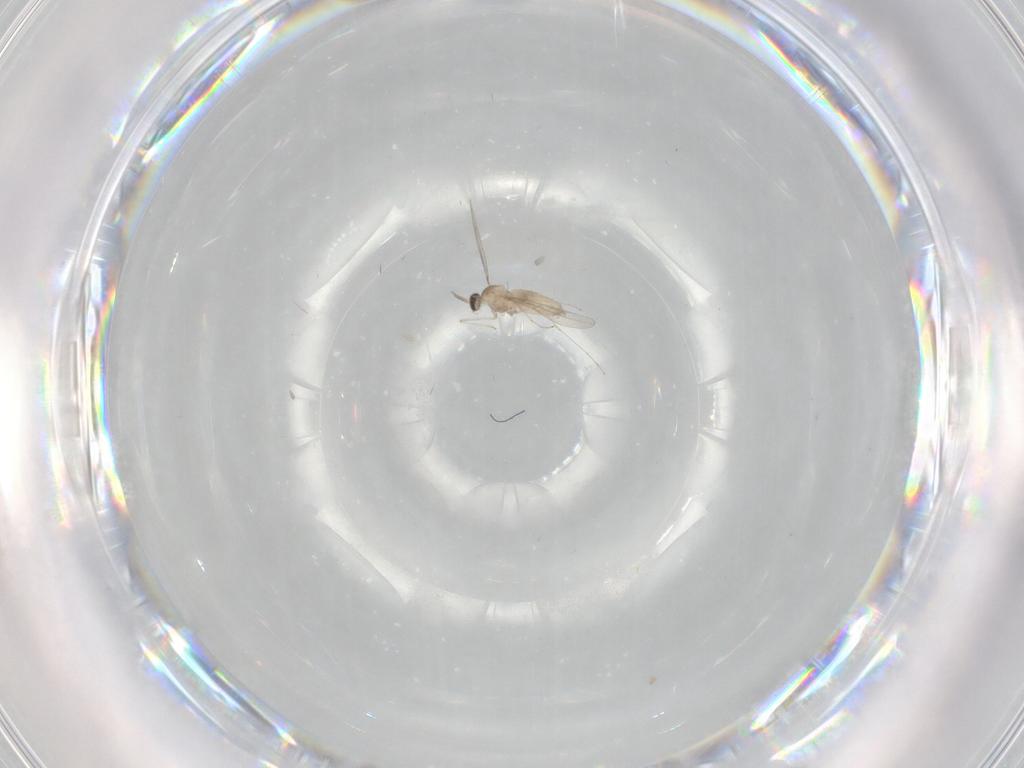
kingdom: Animalia
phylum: Arthropoda
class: Insecta
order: Diptera
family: Cecidomyiidae
